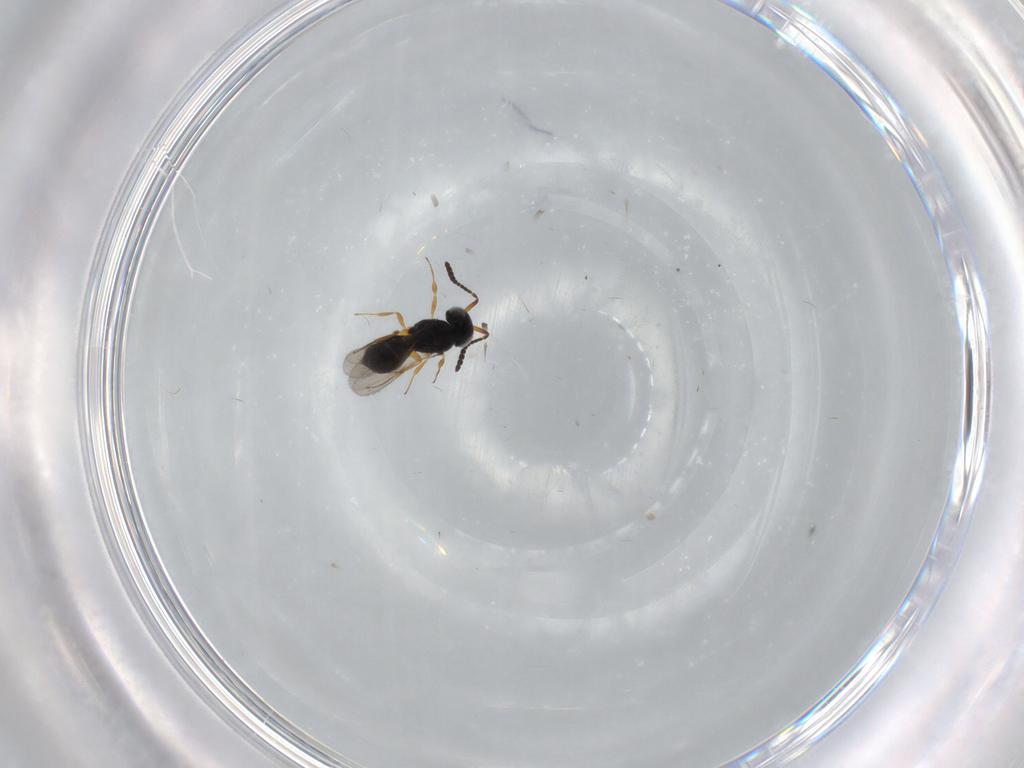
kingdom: Animalia
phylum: Arthropoda
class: Insecta
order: Hymenoptera
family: Scelionidae
